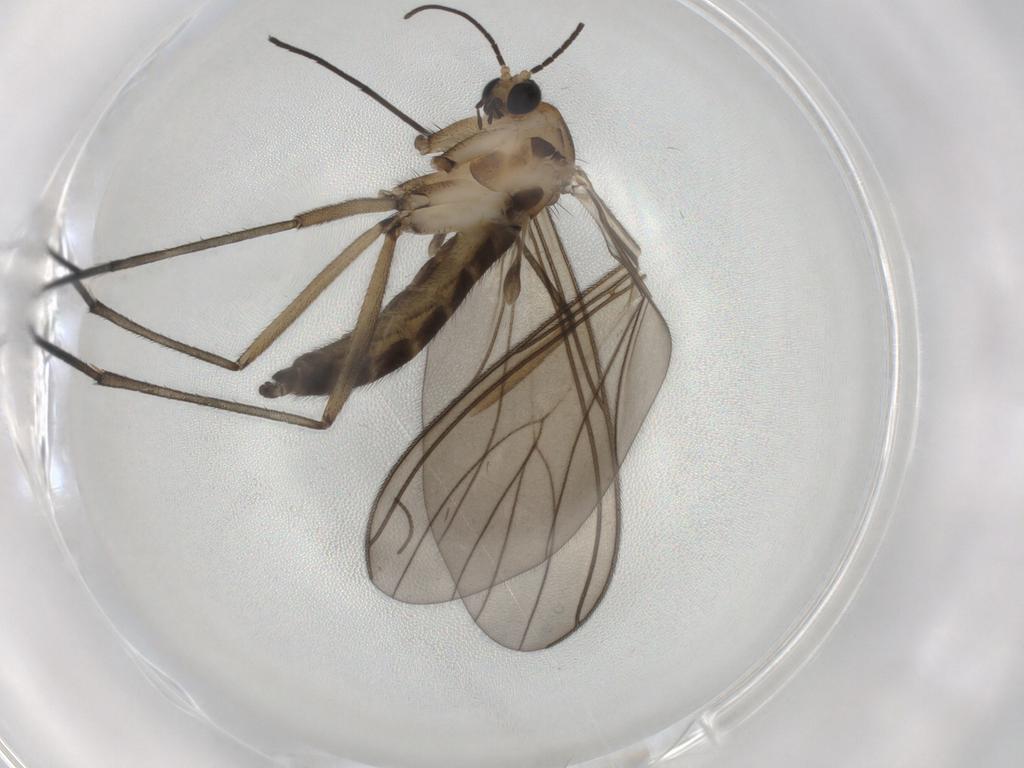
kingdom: Animalia
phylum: Arthropoda
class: Insecta
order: Diptera
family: Sciaridae
